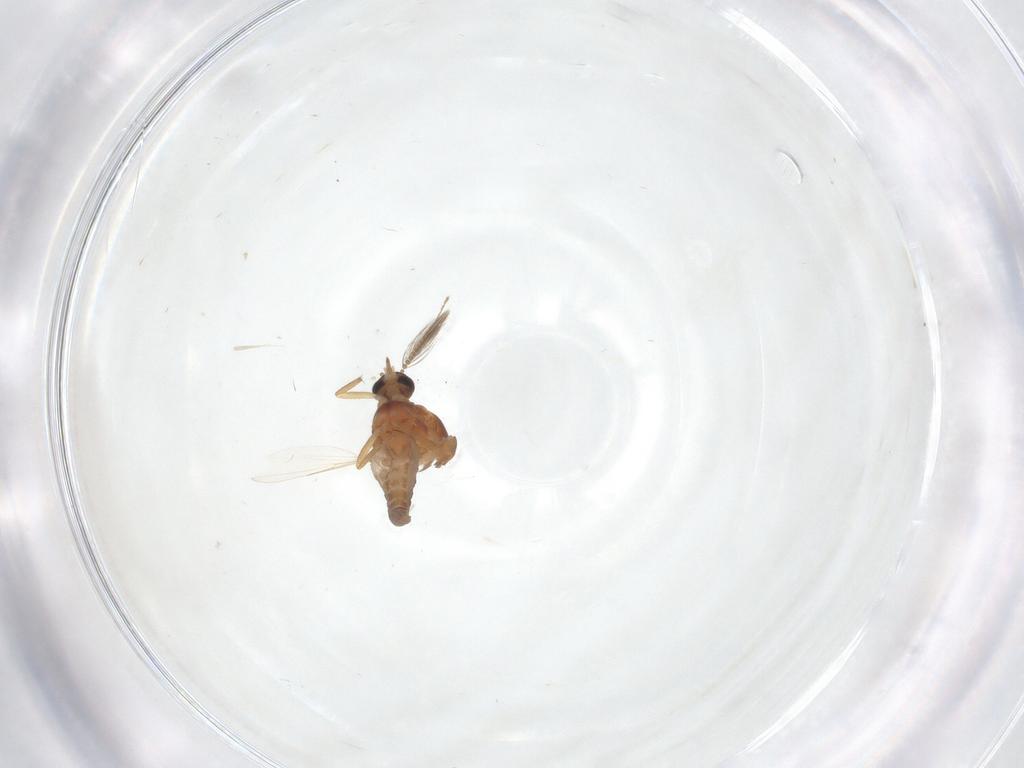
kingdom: Animalia
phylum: Arthropoda
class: Insecta
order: Diptera
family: Ceratopogonidae
